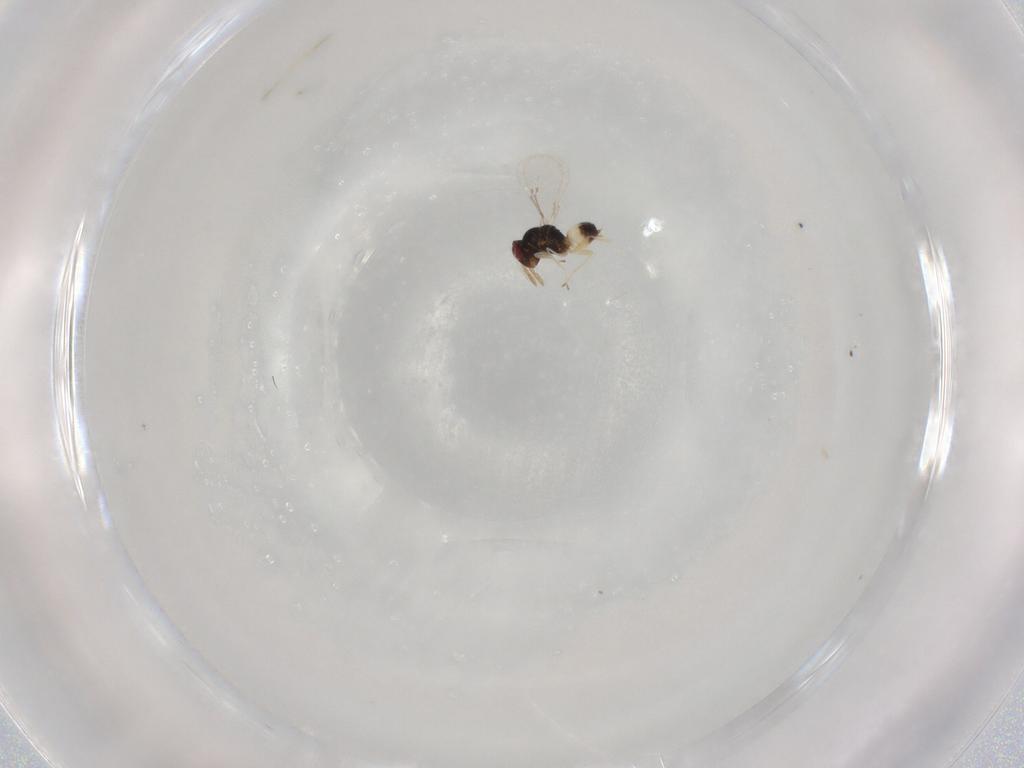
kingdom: Animalia
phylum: Arthropoda
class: Insecta
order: Hymenoptera
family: Eulophidae
